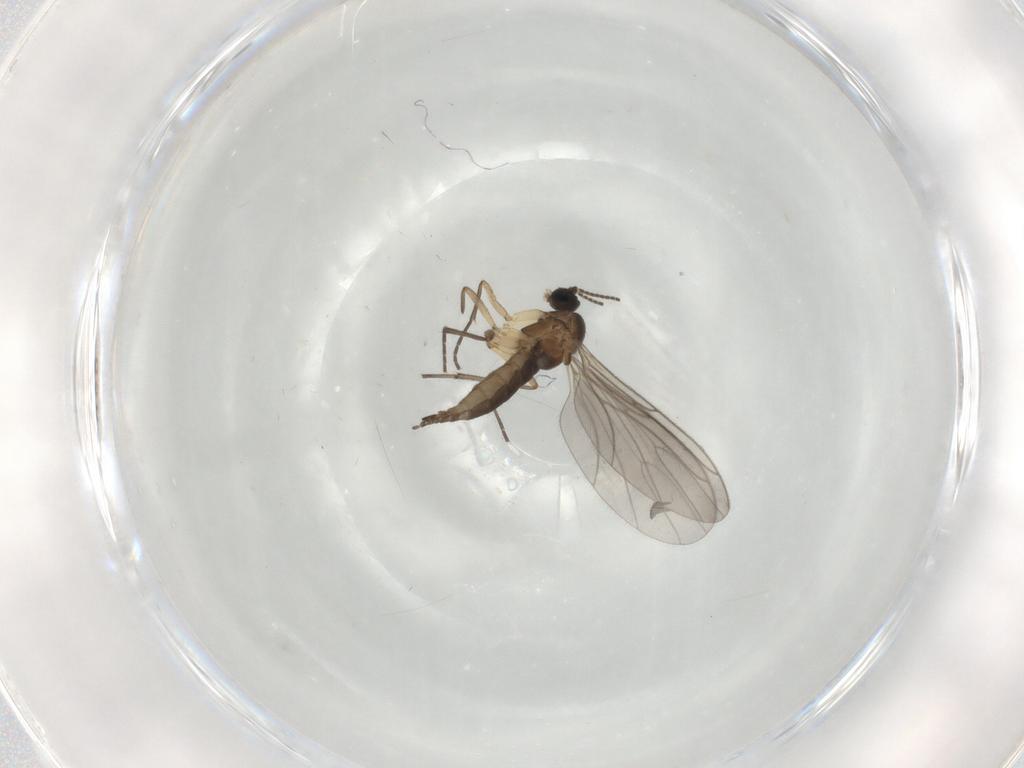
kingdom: Animalia
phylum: Arthropoda
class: Insecta
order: Diptera
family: Sciaridae
